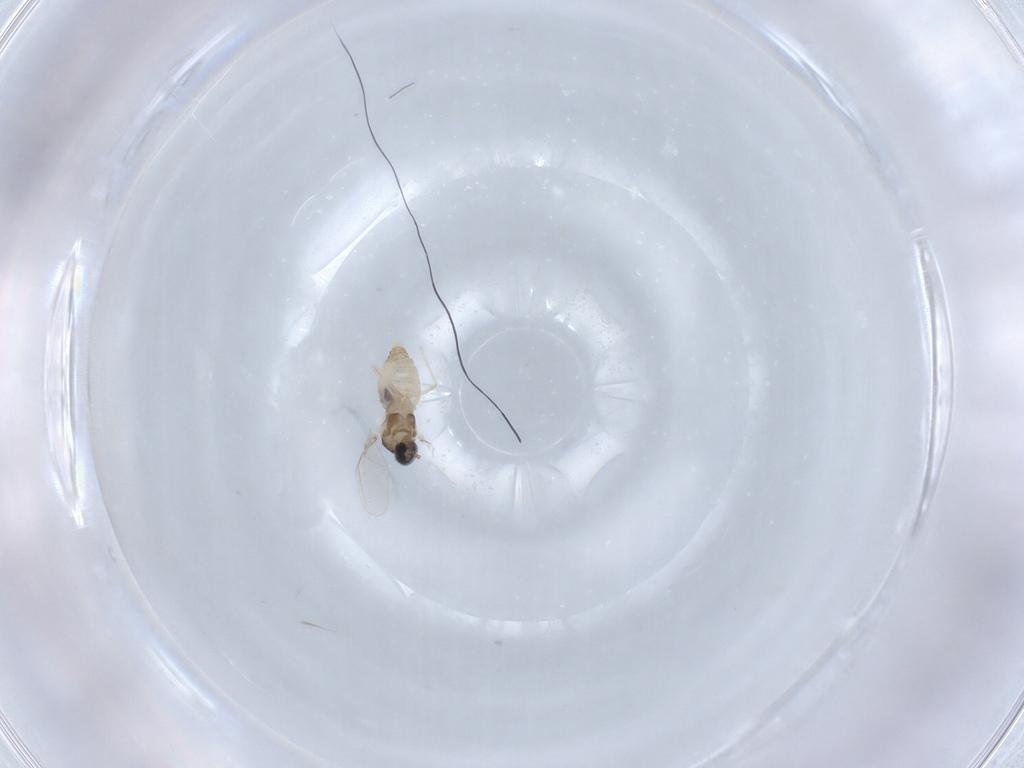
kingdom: Animalia
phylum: Arthropoda
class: Insecta
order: Diptera
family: Cecidomyiidae
